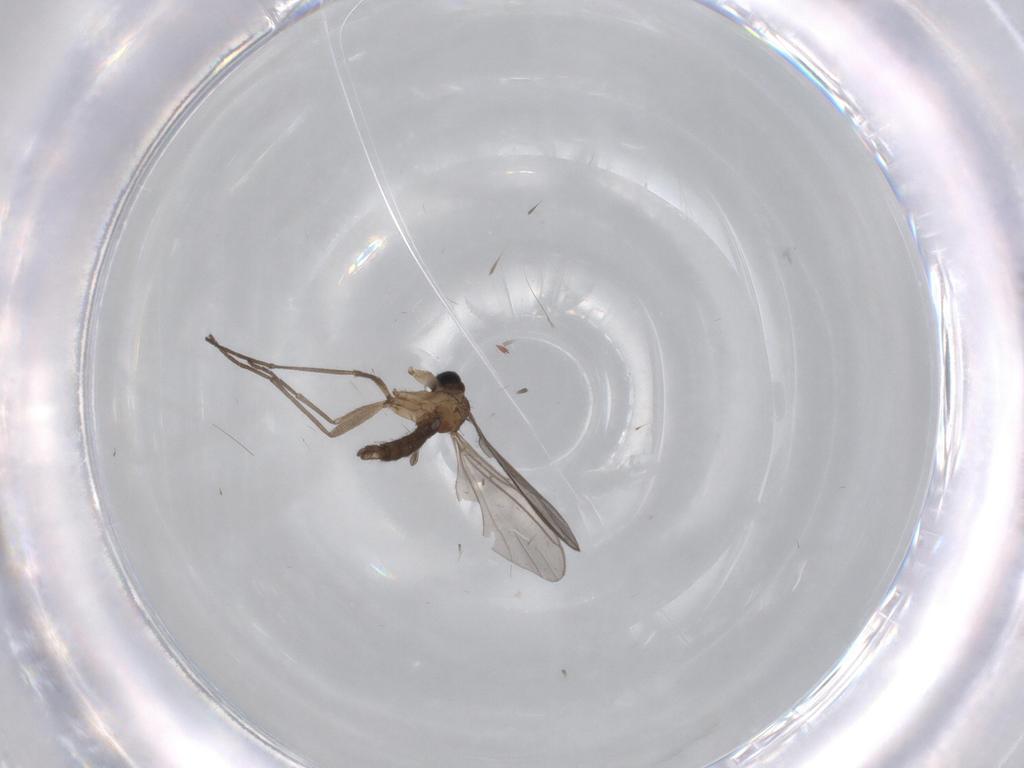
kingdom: Animalia
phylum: Arthropoda
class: Insecta
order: Diptera
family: Sciaridae
